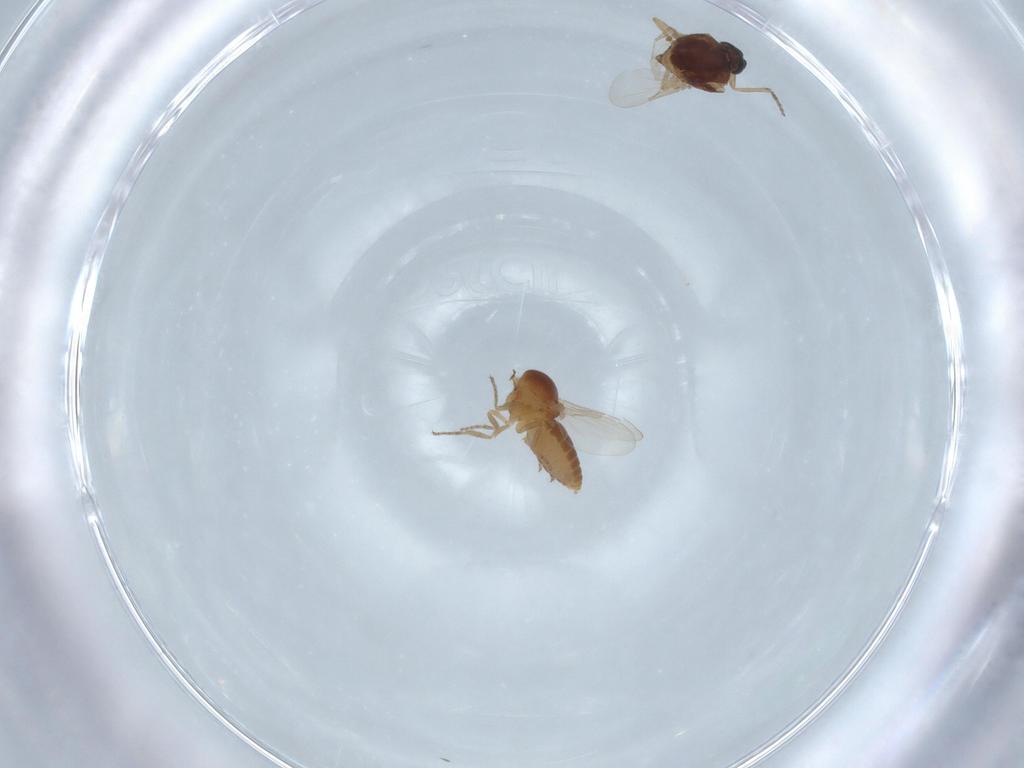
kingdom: Animalia
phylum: Arthropoda
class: Insecta
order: Diptera
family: Ceratopogonidae
